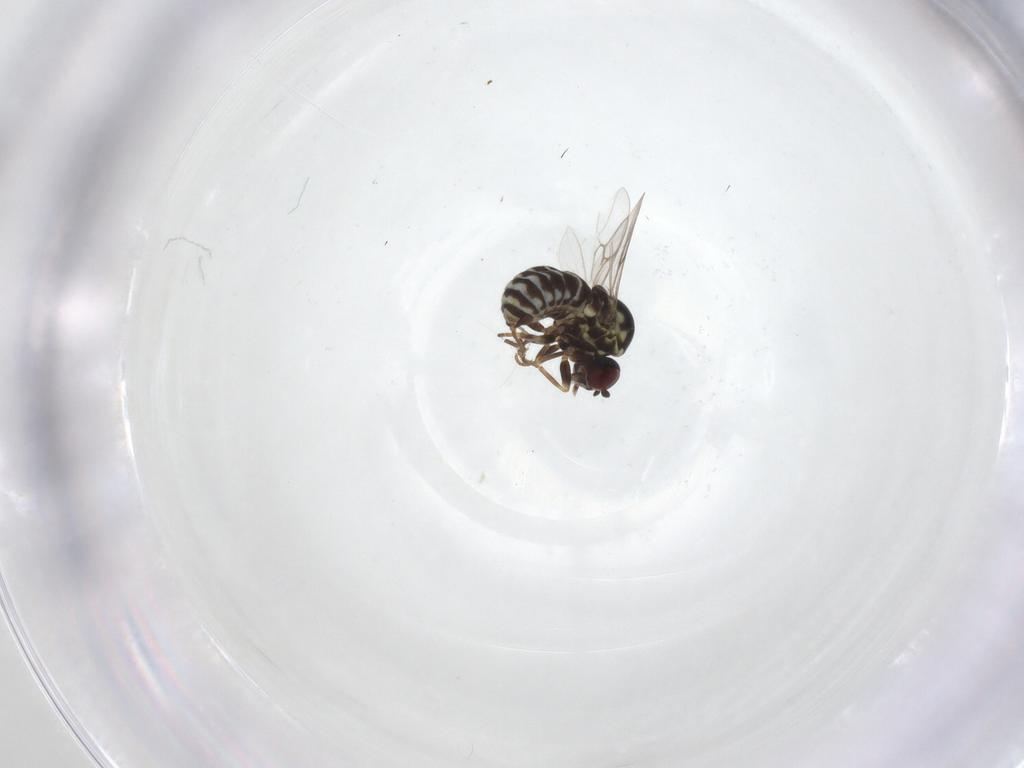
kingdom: Animalia
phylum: Arthropoda
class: Insecta
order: Diptera
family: Mythicomyiidae
